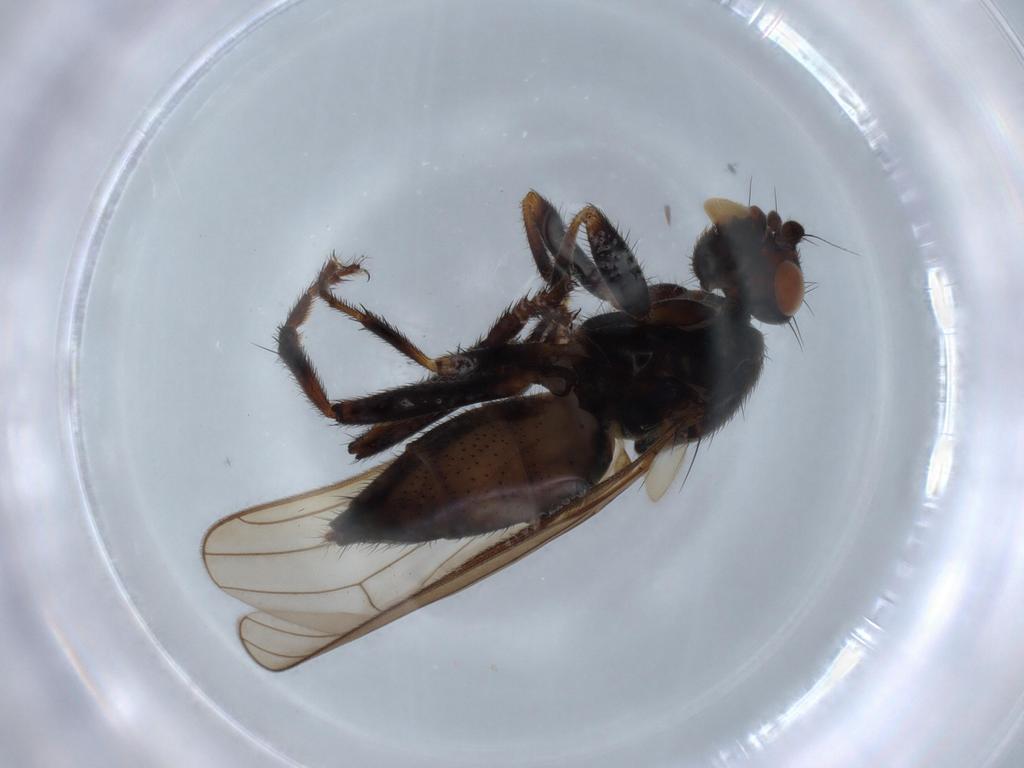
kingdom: Animalia
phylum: Arthropoda
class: Insecta
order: Diptera
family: Sphaeroceridae
